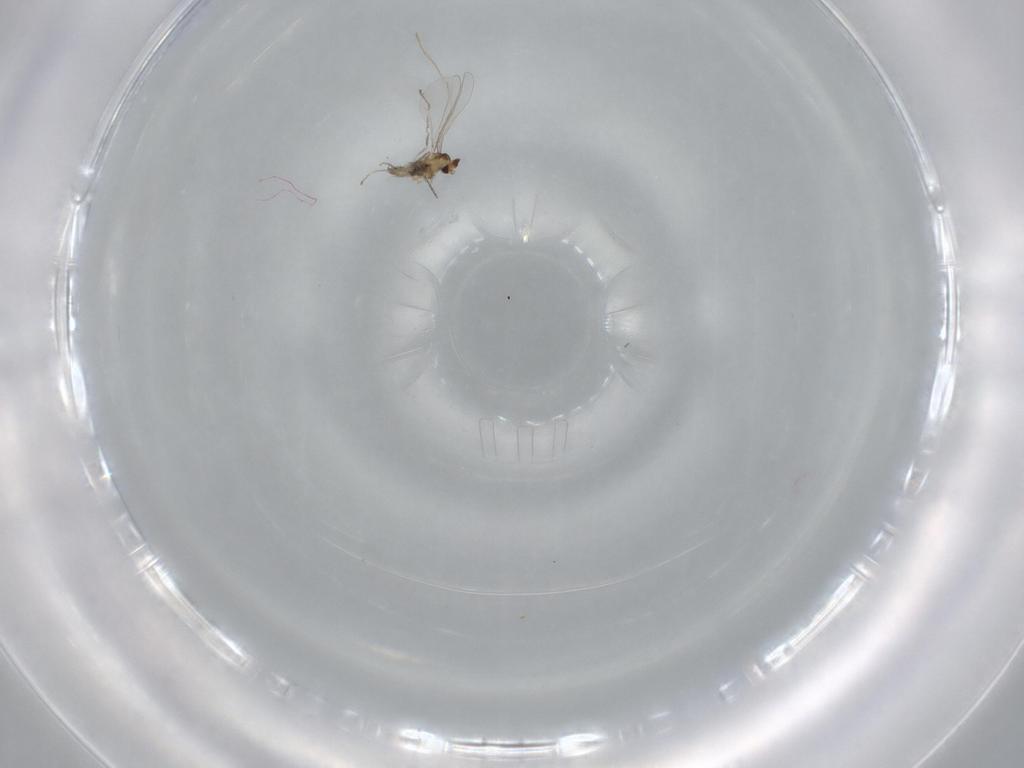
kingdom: Animalia
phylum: Arthropoda
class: Insecta
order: Diptera
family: Cecidomyiidae
